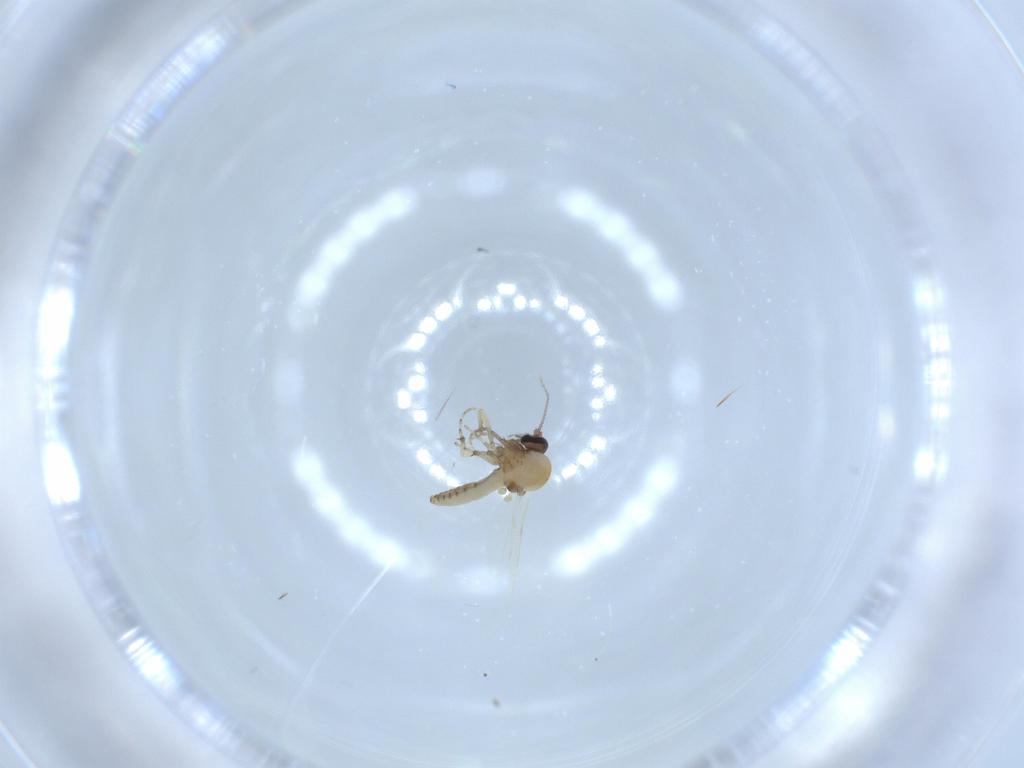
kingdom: Animalia
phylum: Arthropoda
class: Insecta
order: Diptera
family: Ceratopogonidae
